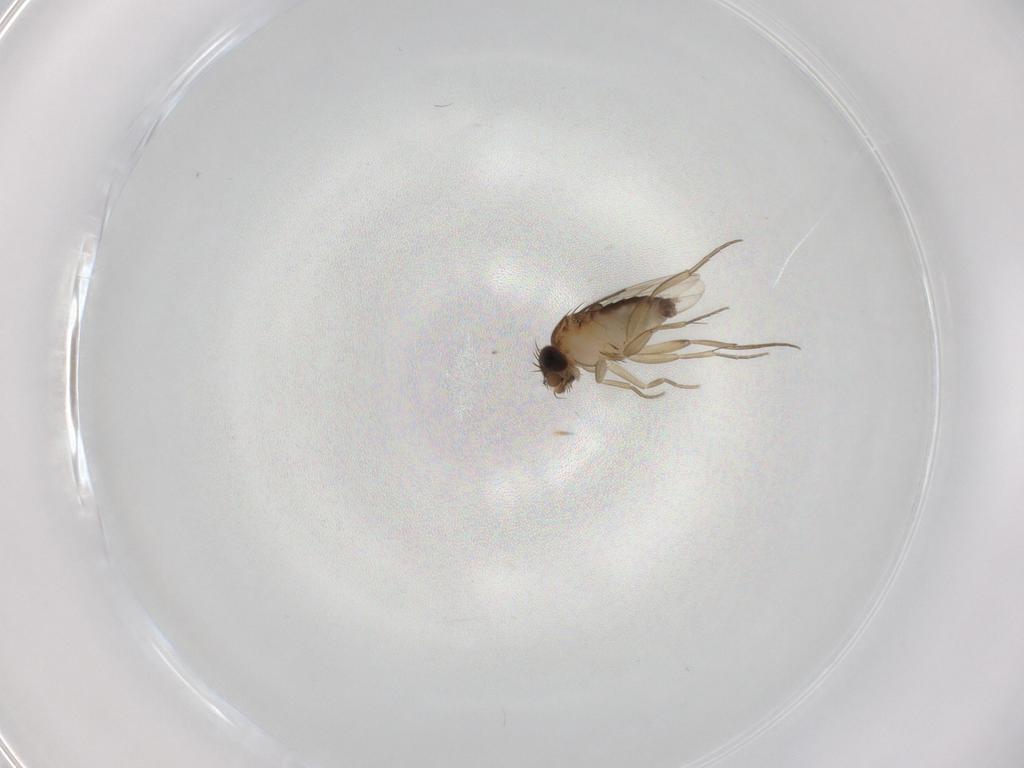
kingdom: Animalia
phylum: Arthropoda
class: Insecta
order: Diptera
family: Phoridae
